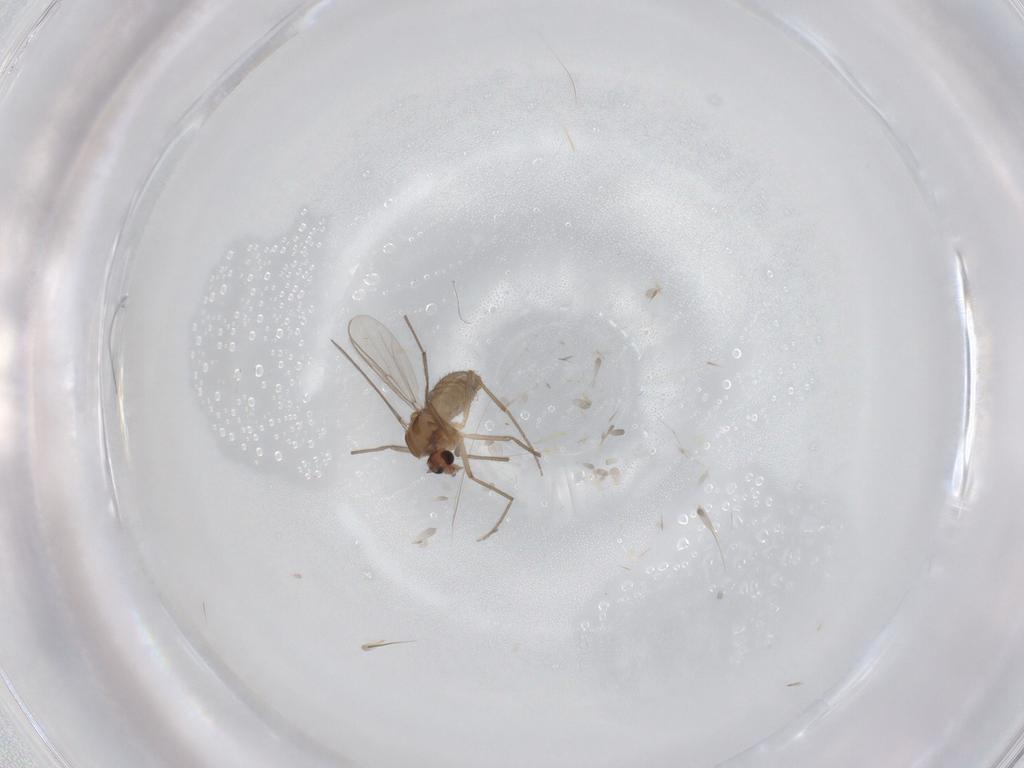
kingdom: Animalia
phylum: Arthropoda
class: Insecta
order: Diptera
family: Chironomidae
